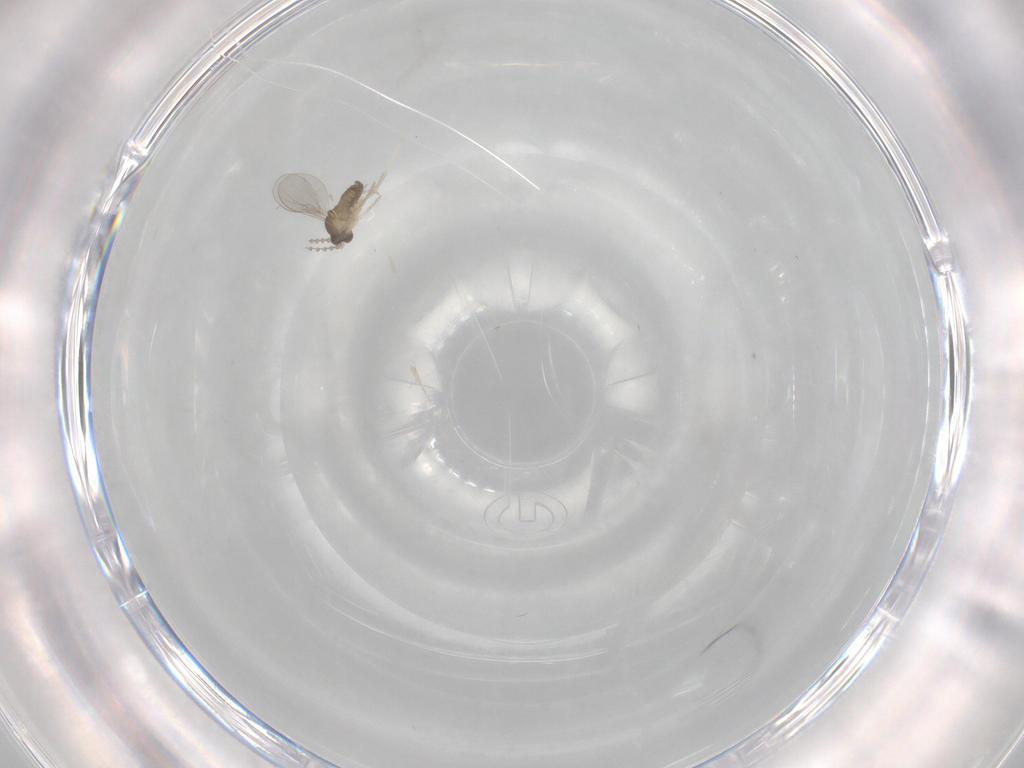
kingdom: Animalia
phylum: Arthropoda
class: Insecta
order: Diptera
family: Cecidomyiidae
